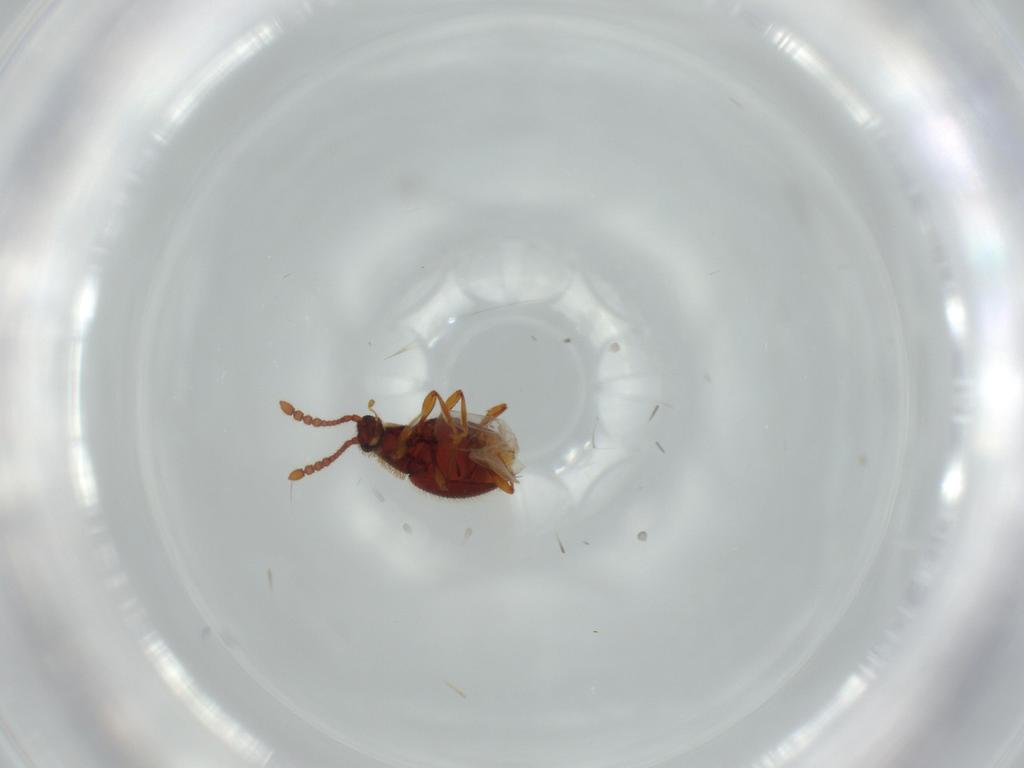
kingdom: Animalia
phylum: Arthropoda
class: Insecta
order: Coleoptera
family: Staphylinidae
